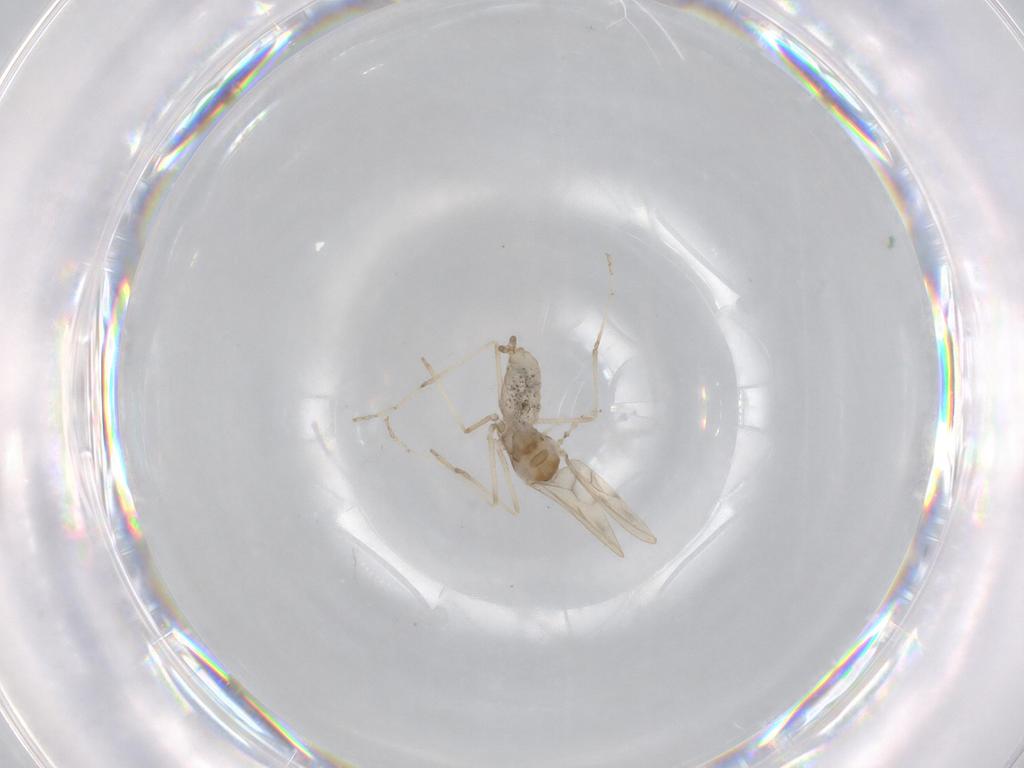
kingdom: Animalia
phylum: Arthropoda
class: Insecta
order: Diptera
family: Cecidomyiidae
